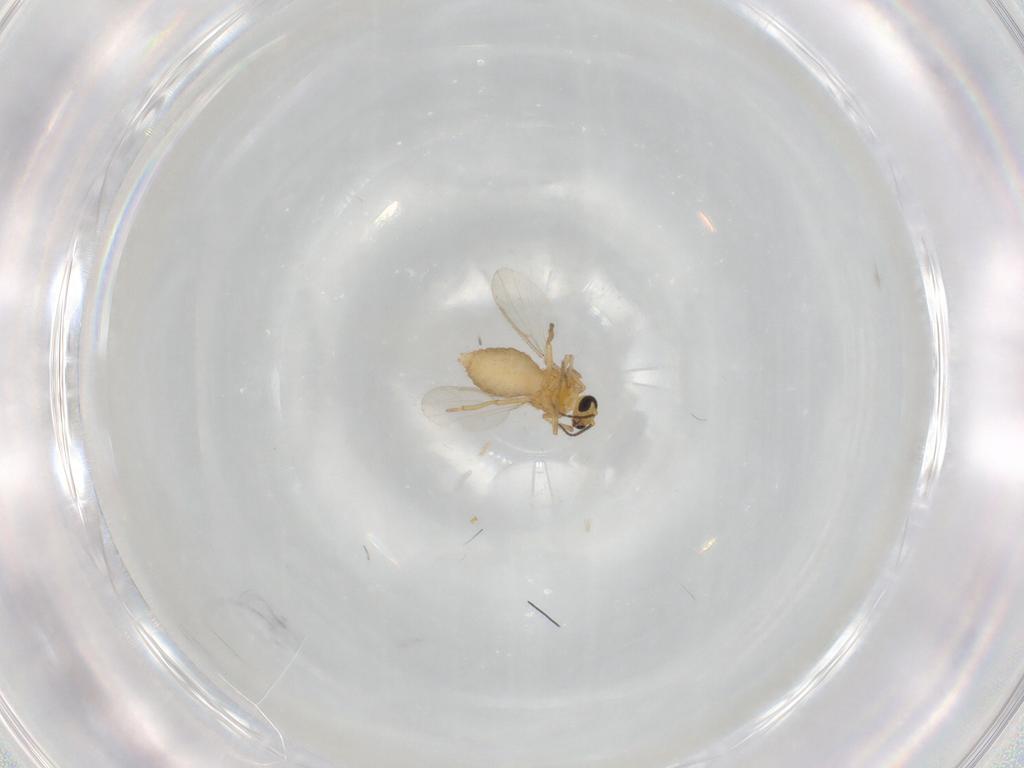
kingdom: Animalia
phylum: Arthropoda
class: Insecta
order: Diptera
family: Ceratopogonidae
